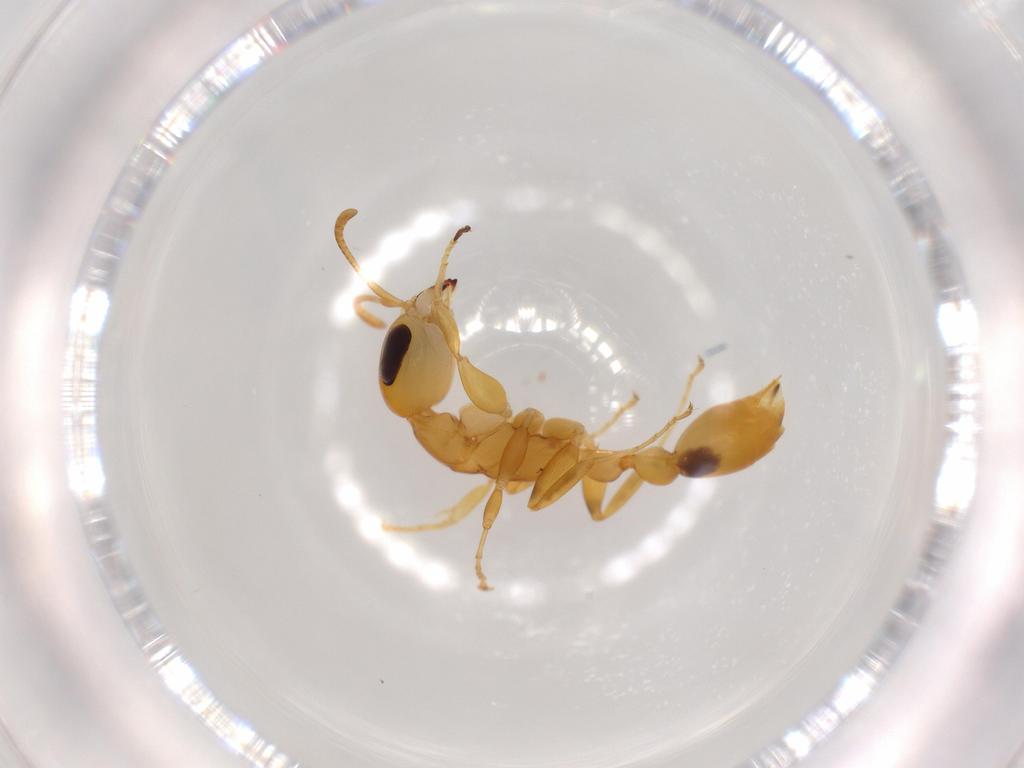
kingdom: Animalia
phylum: Arthropoda
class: Insecta
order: Hymenoptera
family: Formicidae
